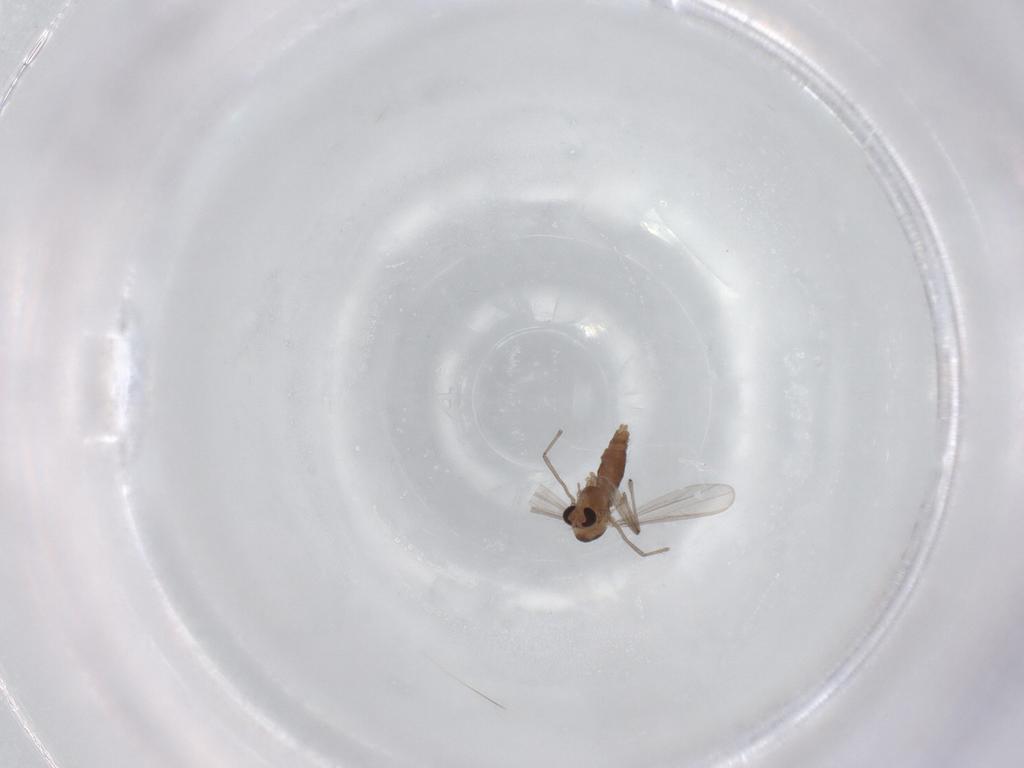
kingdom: Animalia
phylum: Arthropoda
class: Insecta
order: Diptera
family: Chironomidae
